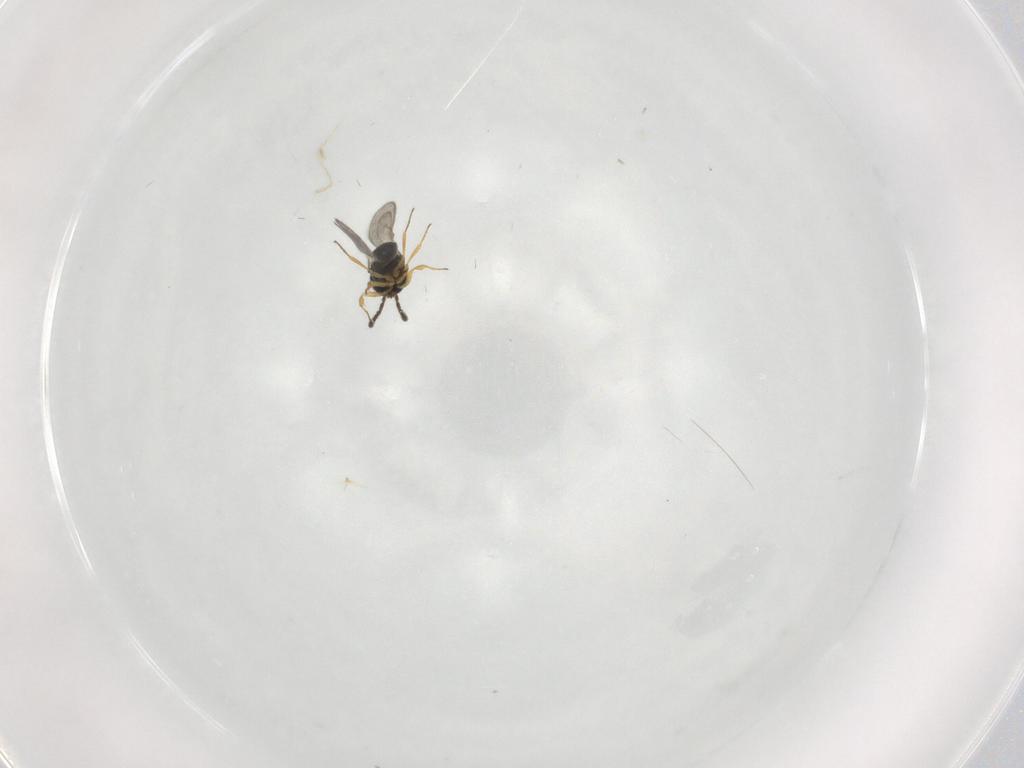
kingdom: Animalia
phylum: Arthropoda
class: Insecta
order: Hymenoptera
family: Scelionidae
